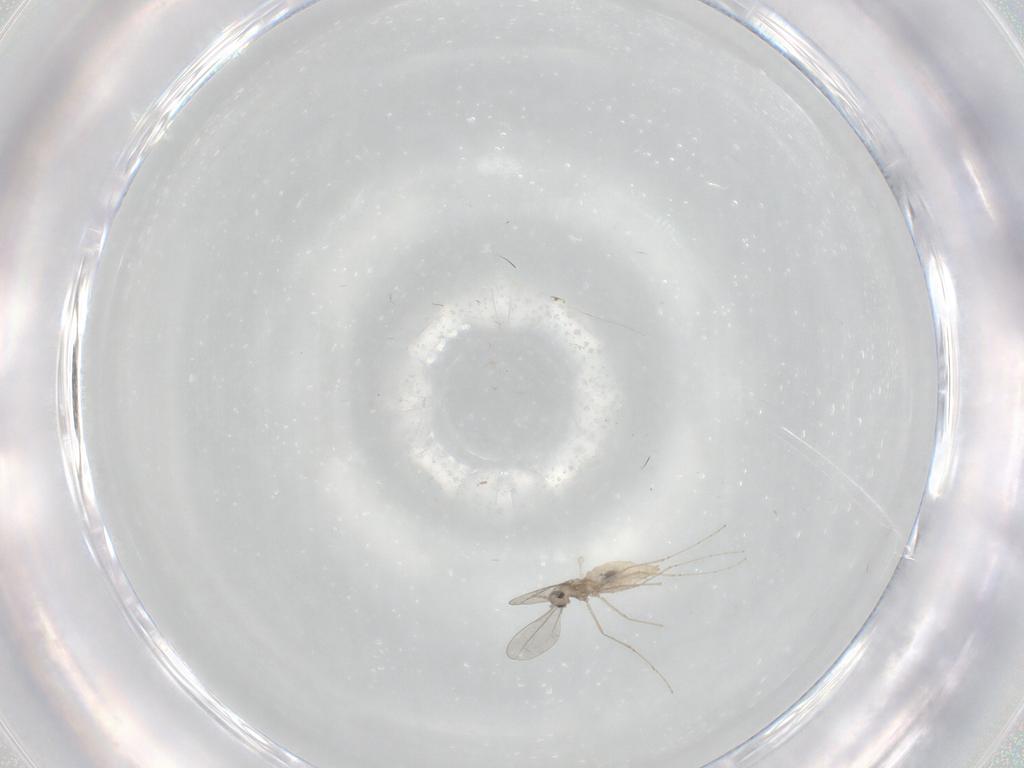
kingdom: Animalia
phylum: Arthropoda
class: Insecta
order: Diptera
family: Cecidomyiidae
